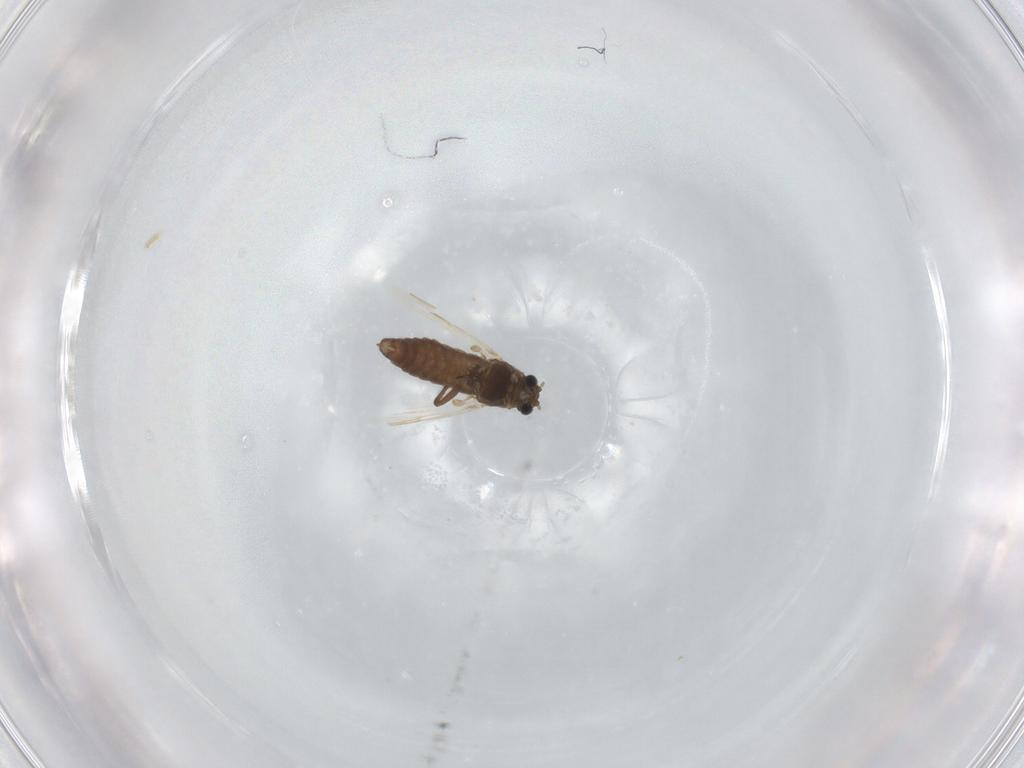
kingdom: Animalia
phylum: Arthropoda
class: Insecta
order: Diptera
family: Chironomidae
